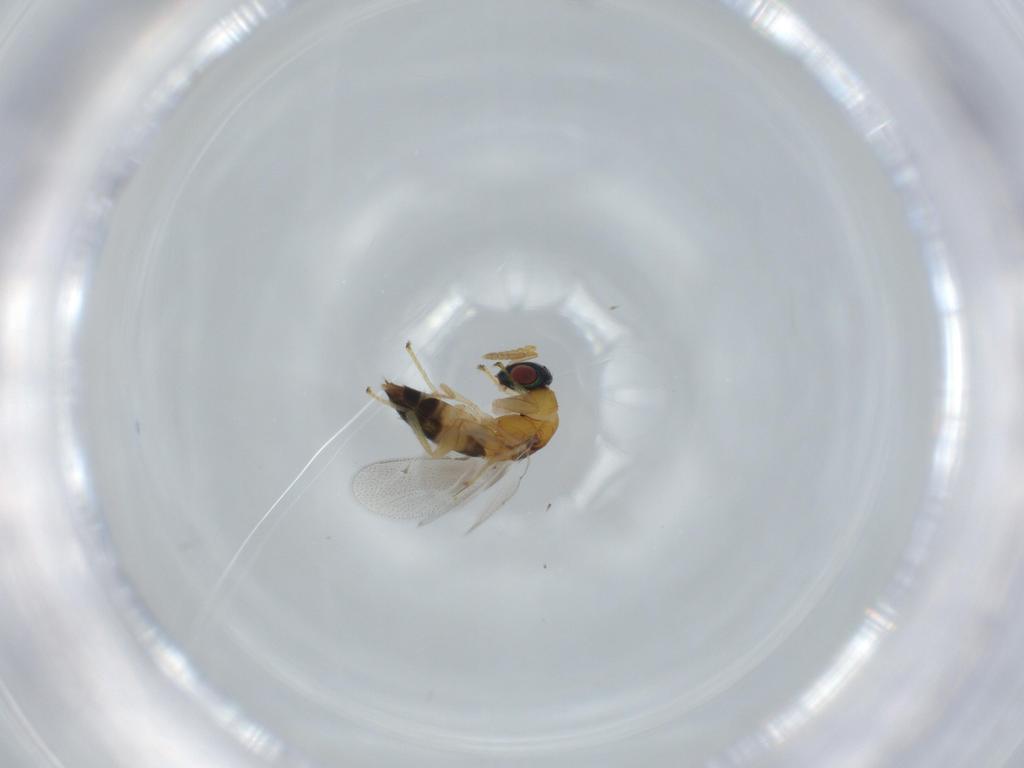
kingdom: Animalia
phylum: Arthropoda
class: Insecta
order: Hymenoptera
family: Torymidae
